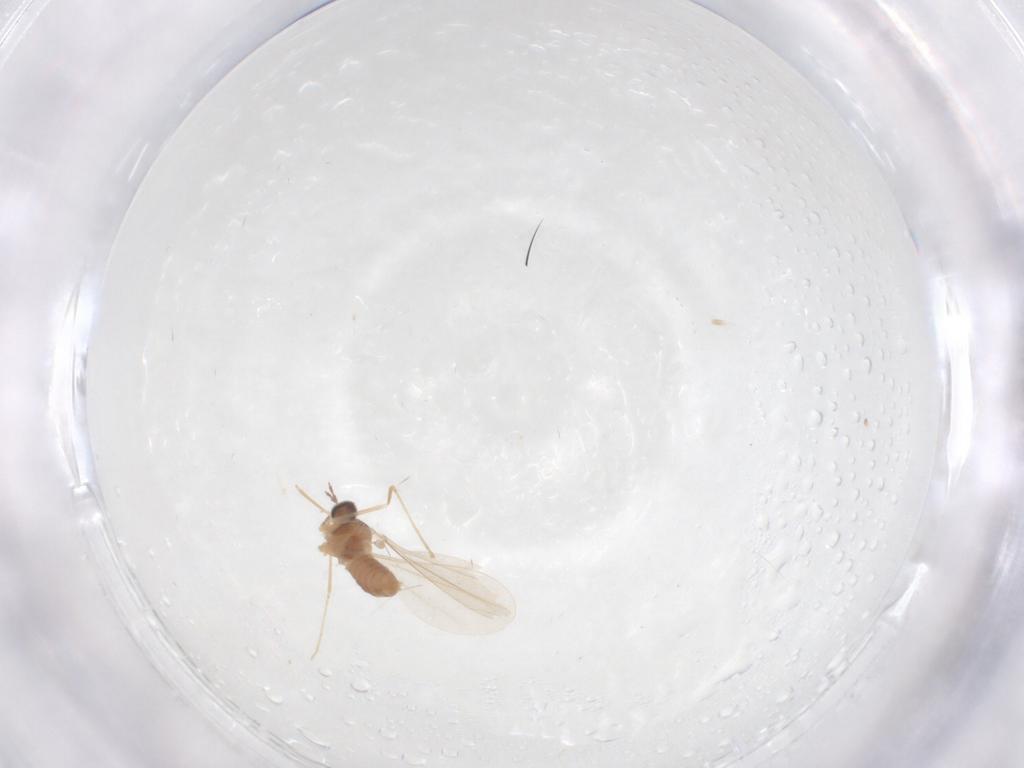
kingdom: Animalia
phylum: Arthropoda
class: Insecta
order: Diptera
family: Cecidomyiidae
